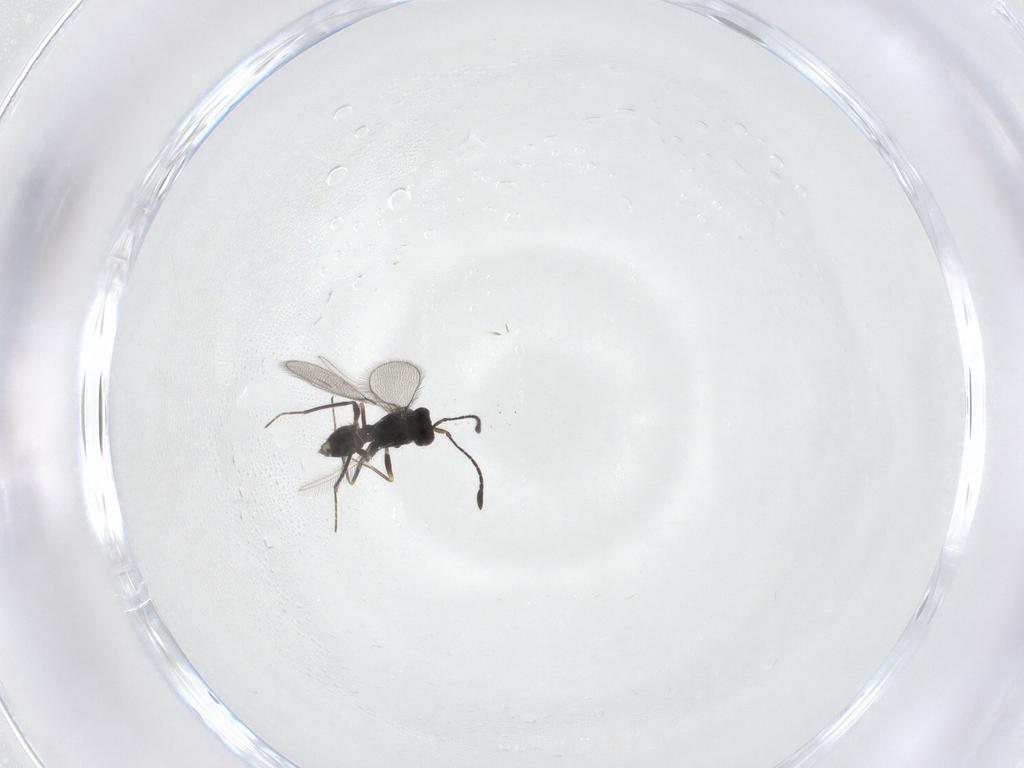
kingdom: Animalia
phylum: Arthropoda
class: Insecta
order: Hymenoptera
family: Mymaridae
